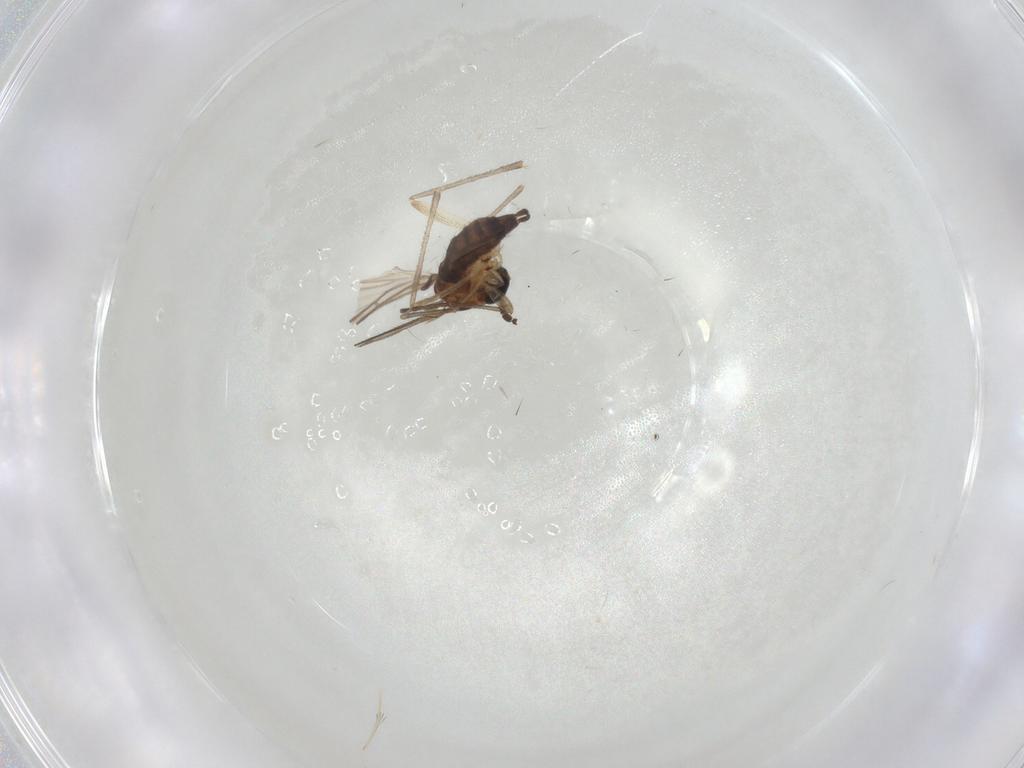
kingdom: Animalia
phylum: Arthropoda
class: Insecta
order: Diptera
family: Sciaridae
